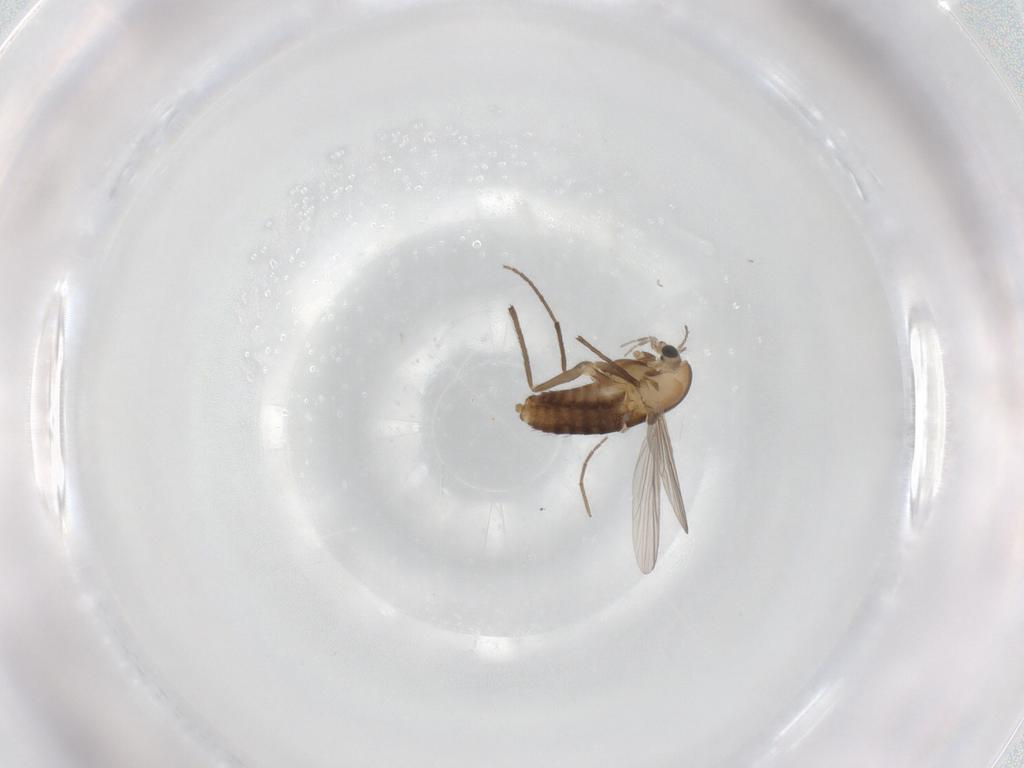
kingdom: Animalia
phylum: Arthropoda
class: Insecta
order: Diptera
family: Chironomidae
